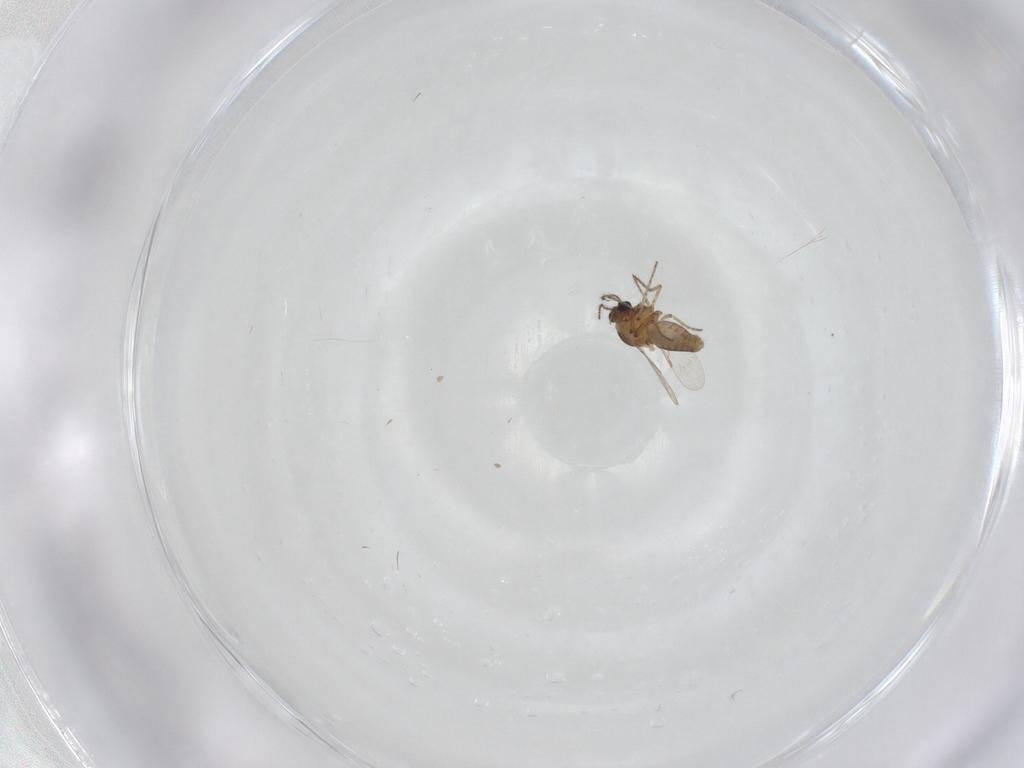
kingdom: Animalia
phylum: Arthropoda
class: Insecta
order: Diptera
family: Ceratopogonidae
